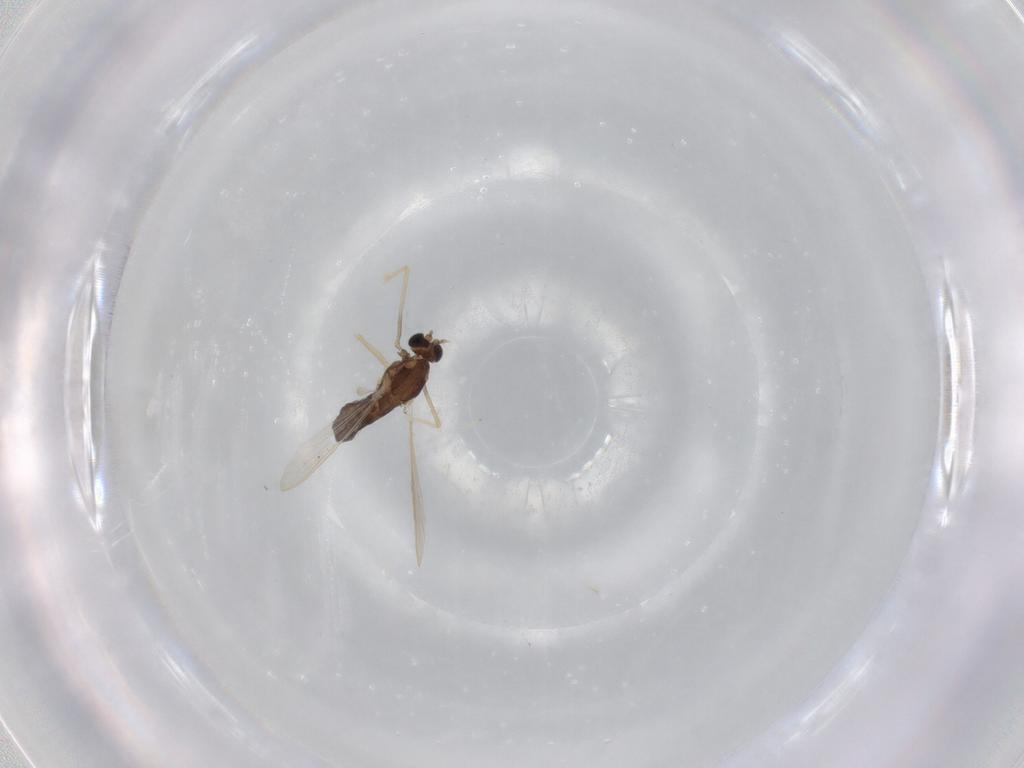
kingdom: Animalia
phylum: Arthropoda
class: Insecta
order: Diptera
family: Chironomidae
